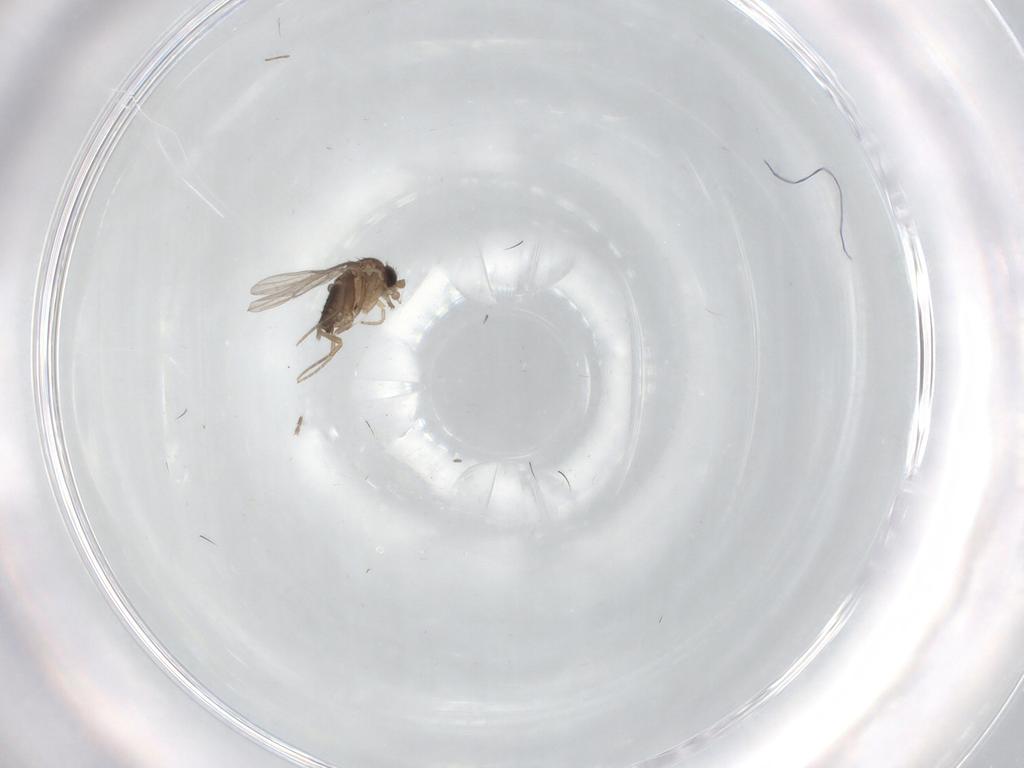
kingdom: Animalia
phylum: Arthropoda
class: Insecta
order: Diptera
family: Phoridae
